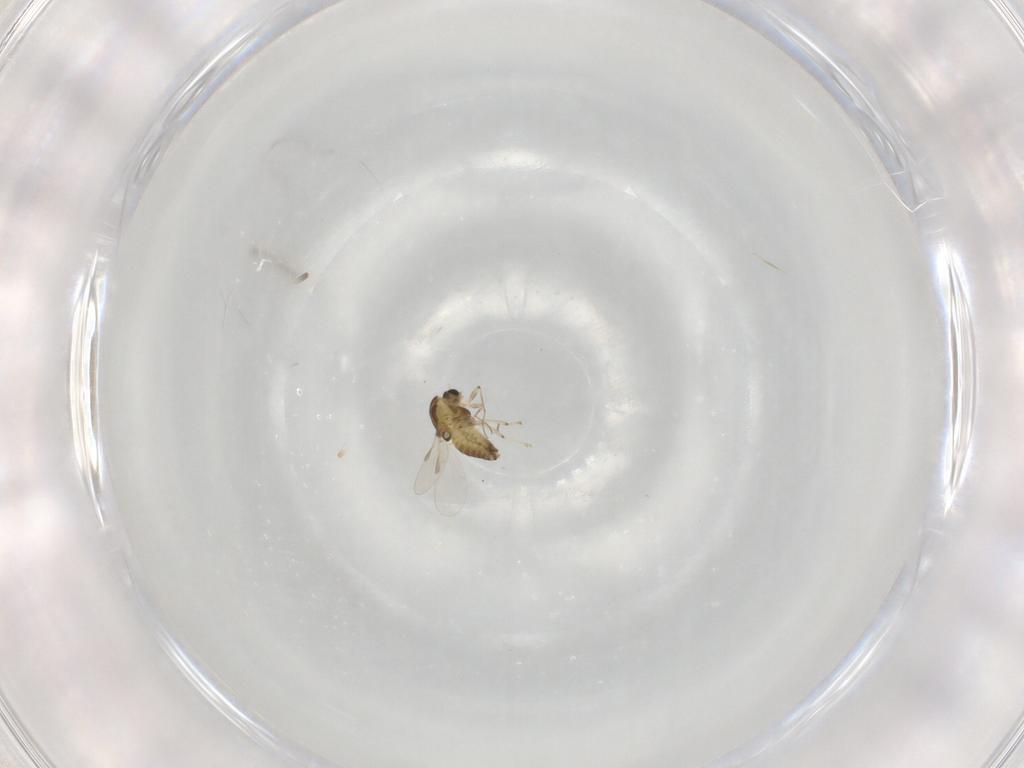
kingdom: Animalia
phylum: Arthropoda
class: Insecta
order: Diptera
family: Chironomidae
